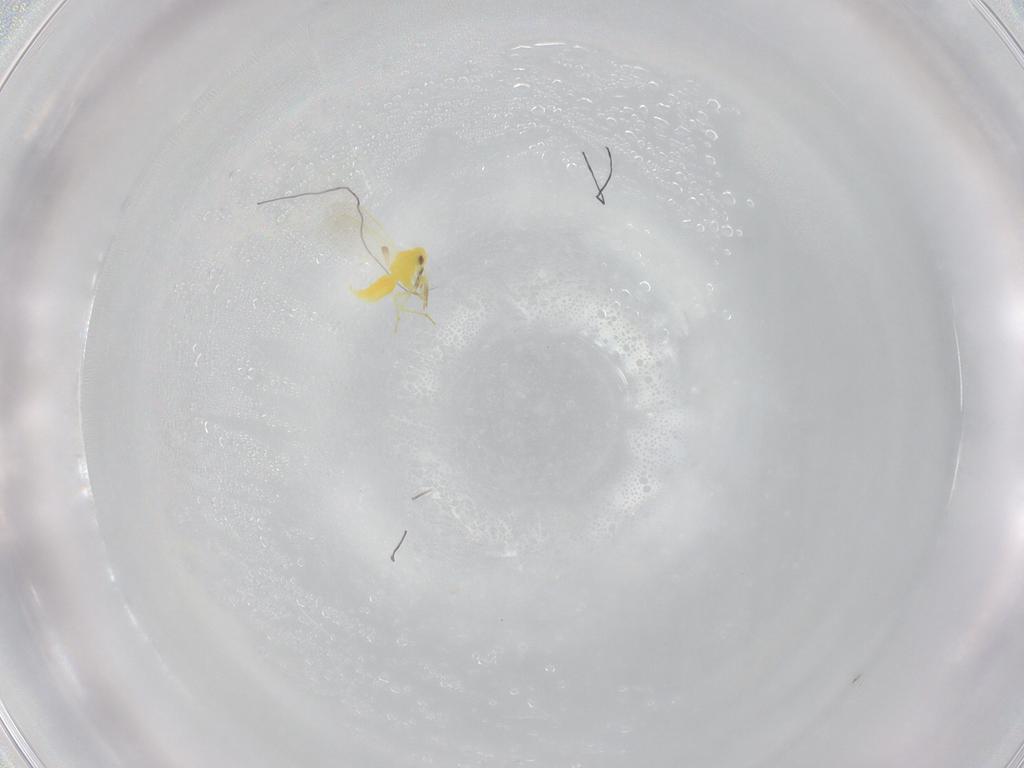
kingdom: Animalia
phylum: Arthropoda
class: Insecta
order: Hemiptera
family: Aleyrodidae
